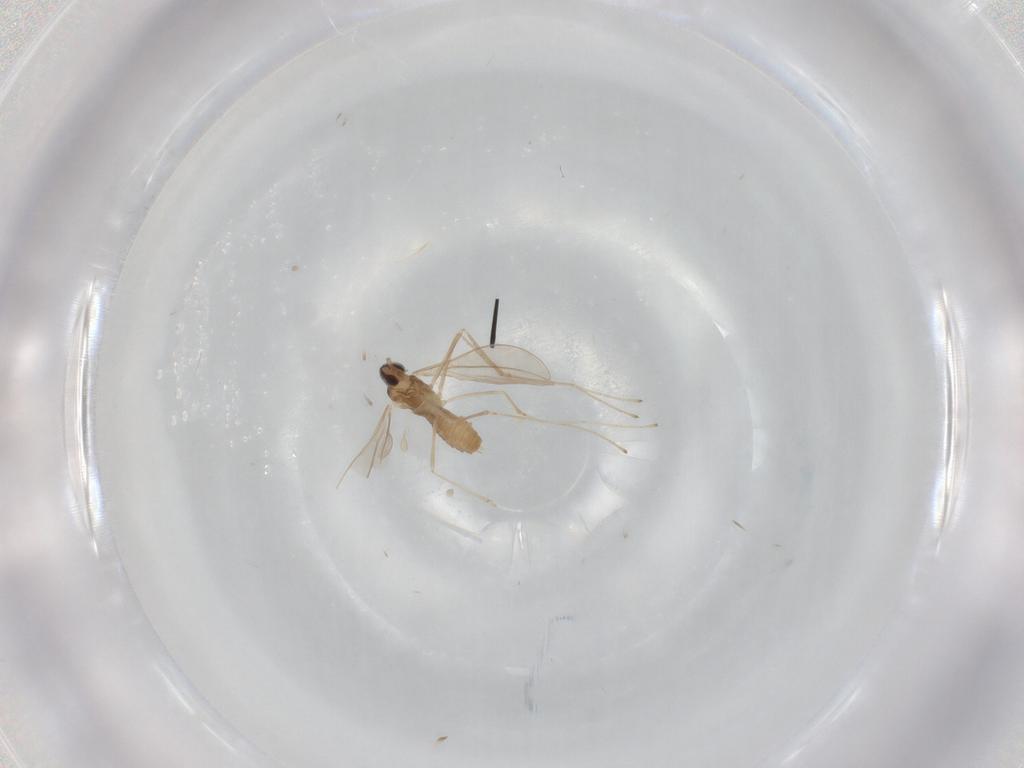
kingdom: Animalia
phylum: Arthropoda
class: Insecta
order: Diptera
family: Cecidomyiidae
